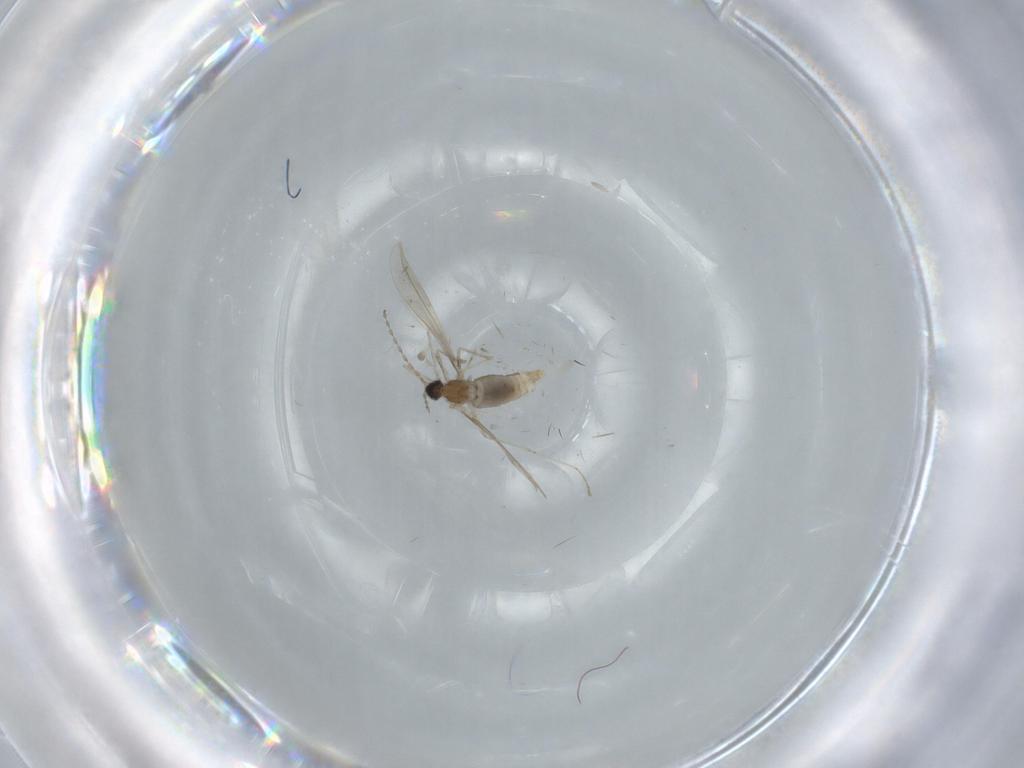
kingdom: Animalia
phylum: Arthropoda
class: Insecta
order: Diptera
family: Cecidomyiidae
